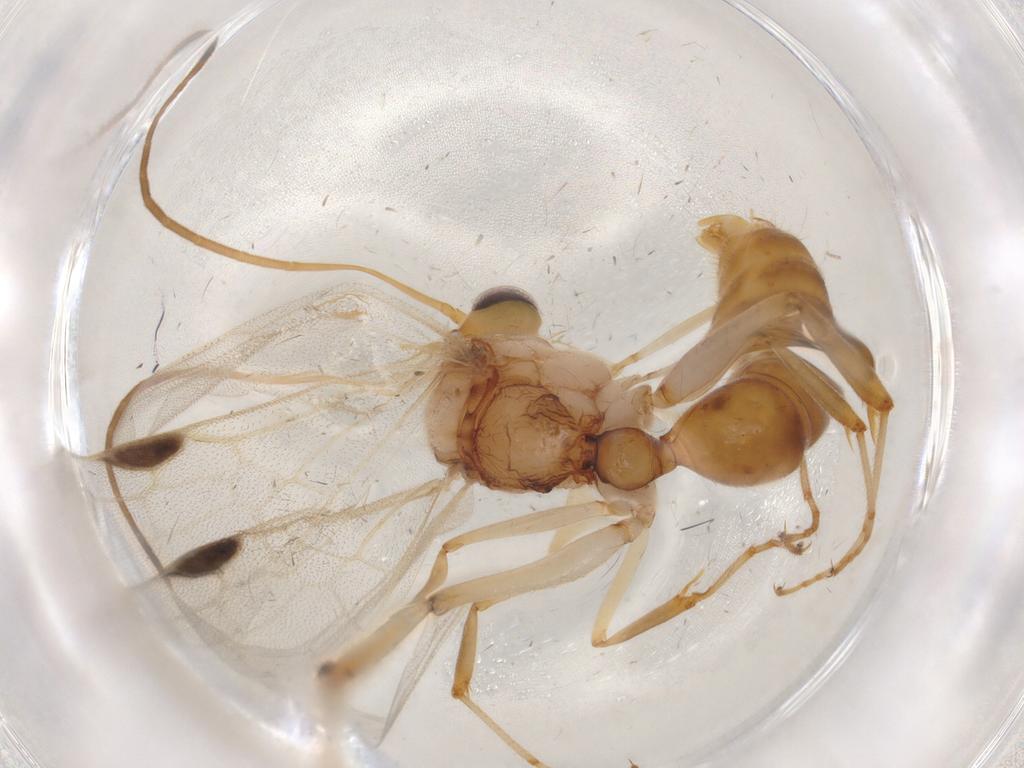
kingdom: Animalia
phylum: Arthropoda
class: Insecta
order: Hymenoptera
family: Formicidae
